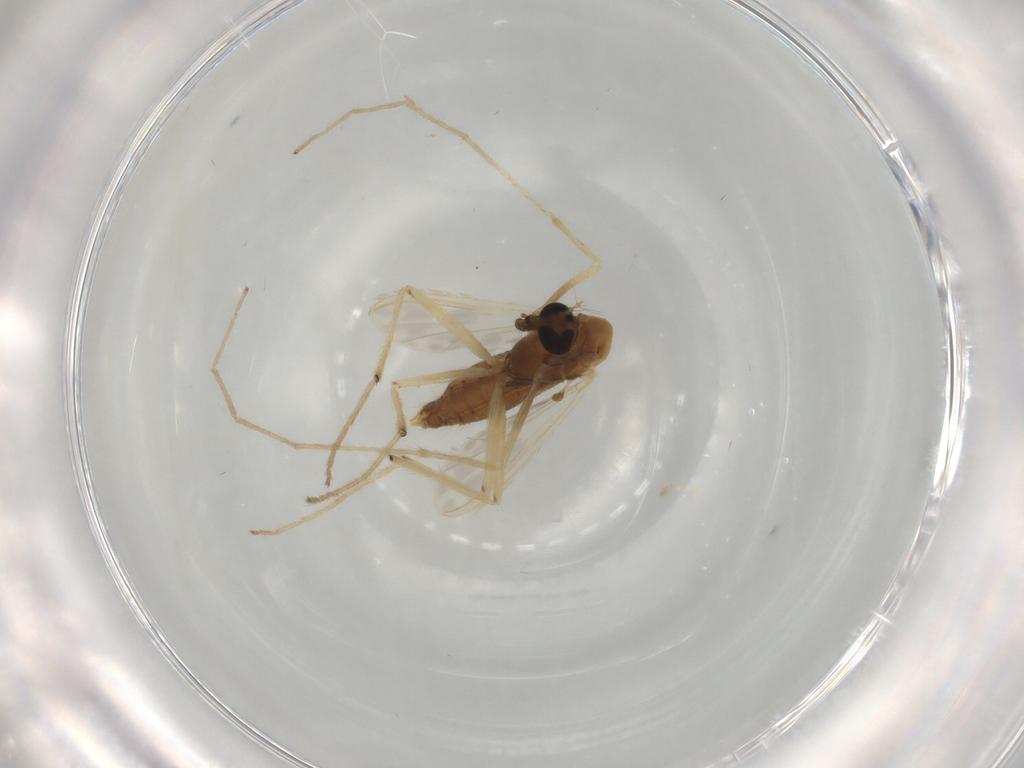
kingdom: Animalia
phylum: Arthropoda
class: Insecta
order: Diptera
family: Chironomidae
